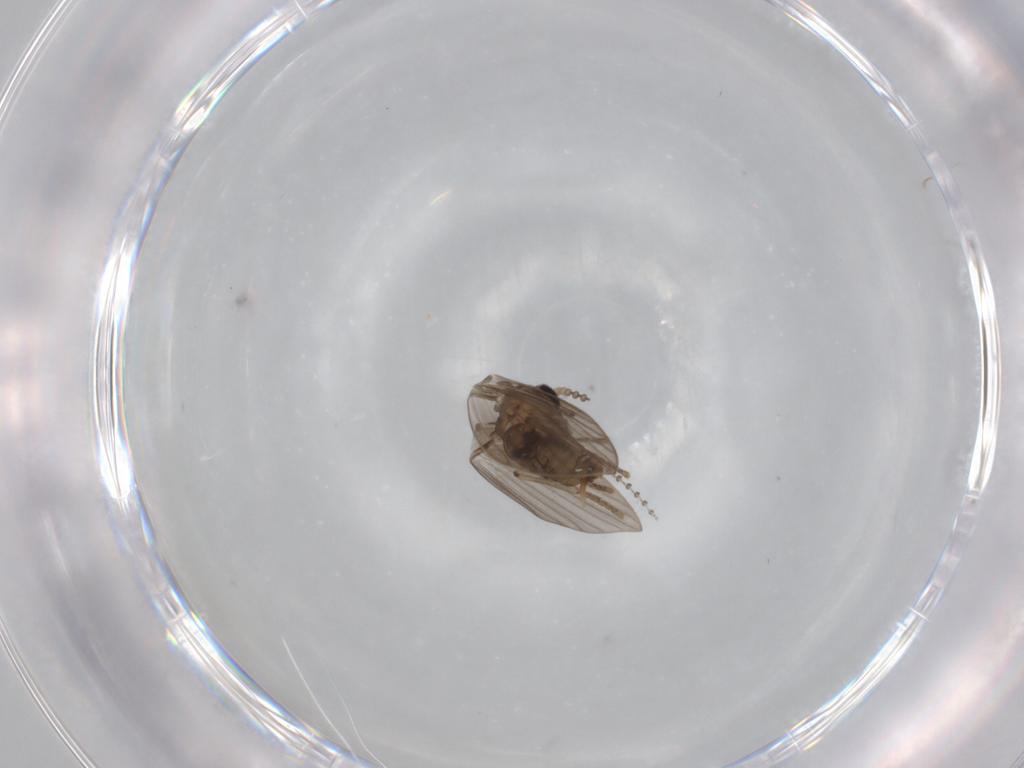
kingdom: Animalia
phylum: Arthropoda
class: Insecta
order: Diptera
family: Psychodidae
